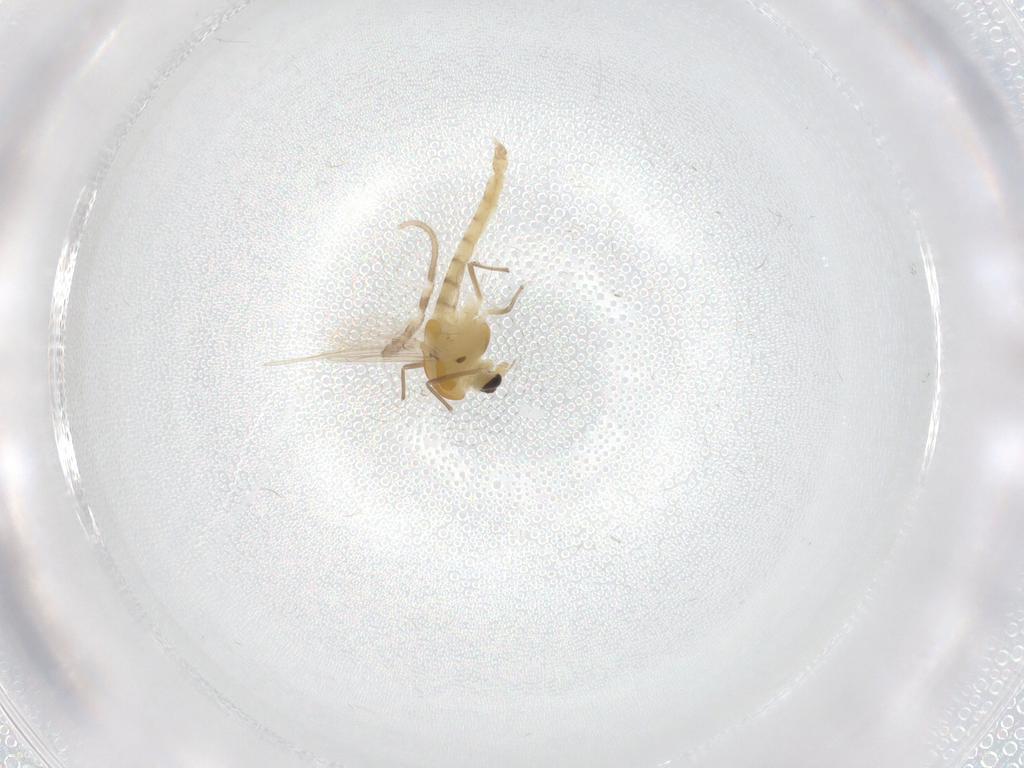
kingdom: Animalia
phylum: Arthropoda
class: Insecta
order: Diptera
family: Chironomidae
